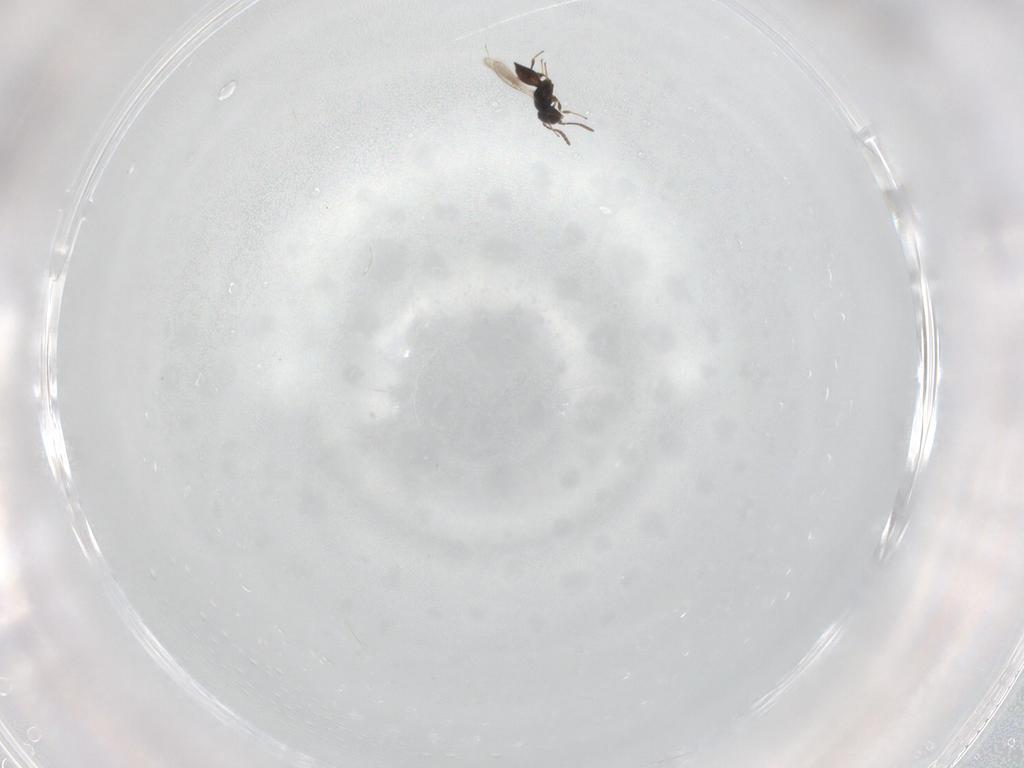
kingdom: Animalia
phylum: Arthropoda
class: Insecta
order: Hymenoptera
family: Scelionidae
